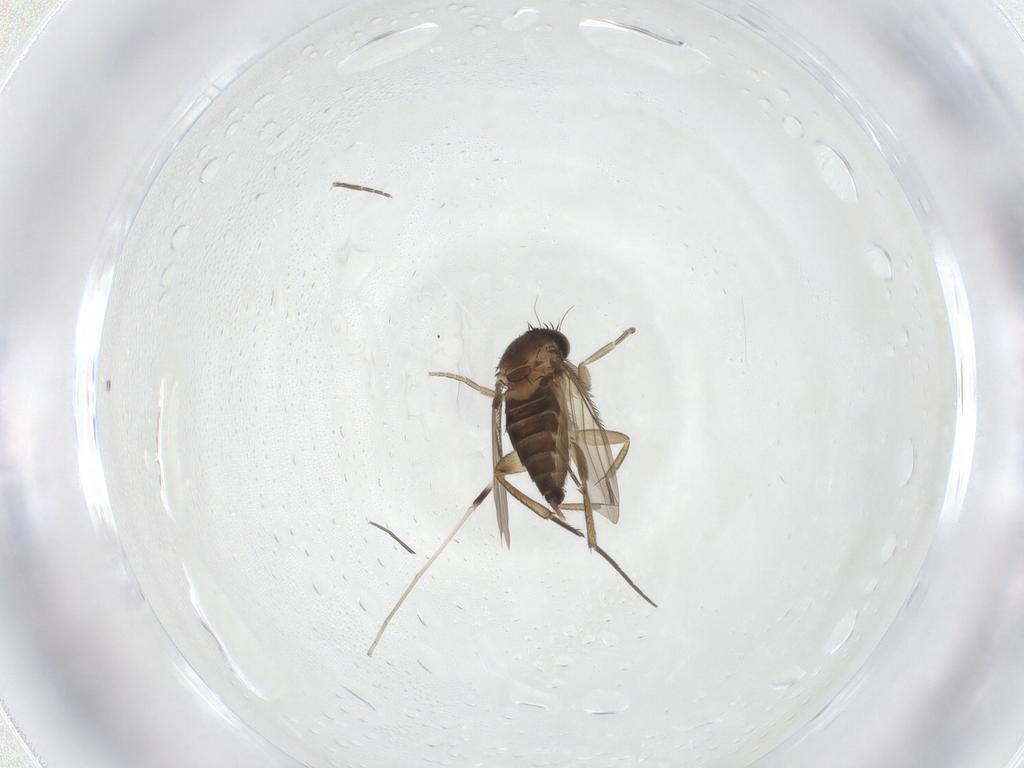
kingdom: Animalia
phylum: Arthropoda
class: Insecta
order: Diptera
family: Phoridae
